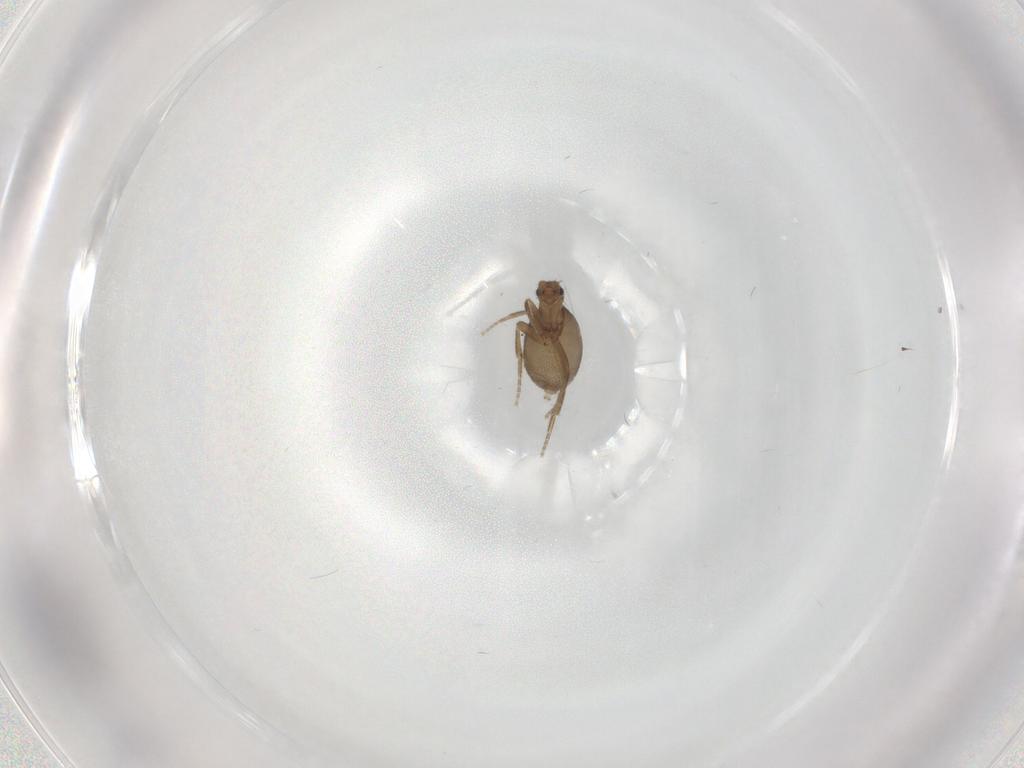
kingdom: Animalia
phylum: Arthropoda
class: Insecta
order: Diptera
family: Phoridae
